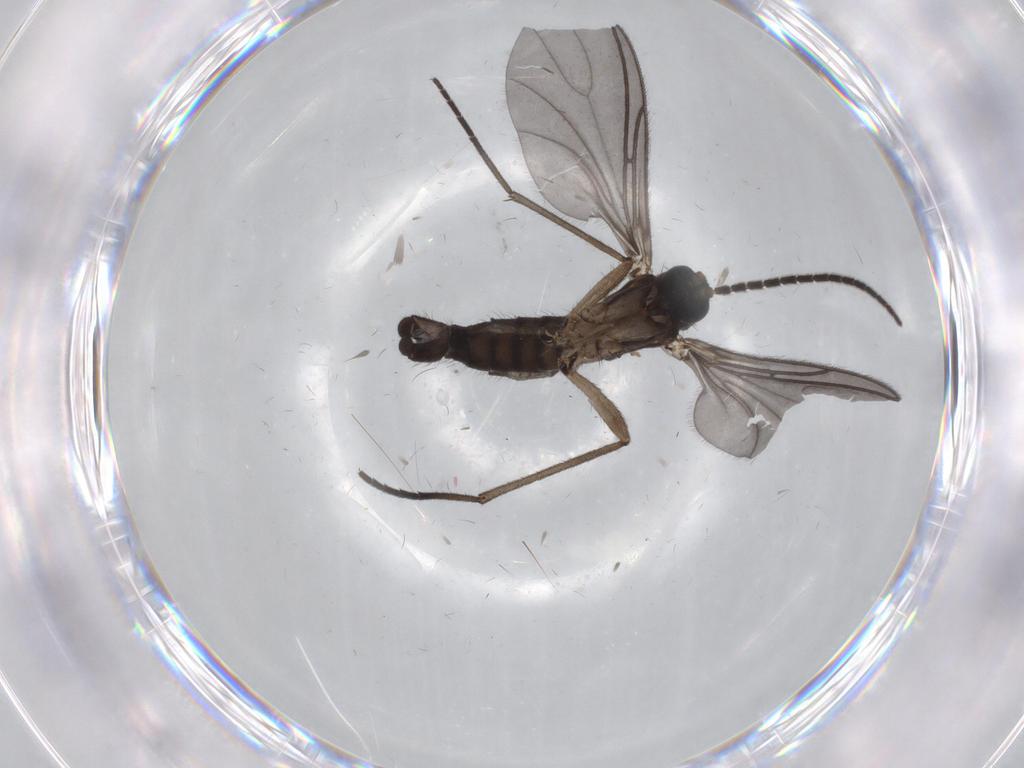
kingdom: Animalia
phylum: Arthropoda
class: Insecta
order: Diptera
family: Sciaridae
